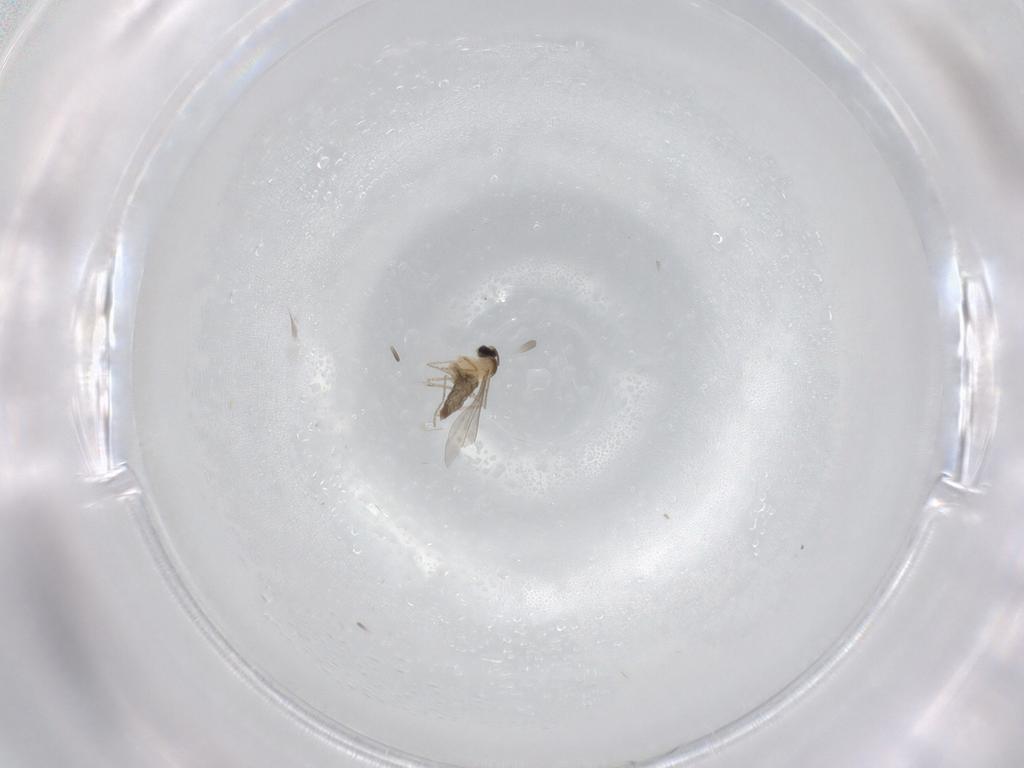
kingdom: Animalia
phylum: Arthropoda
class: Insecta
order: Diptera
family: Cecidomyiidae
